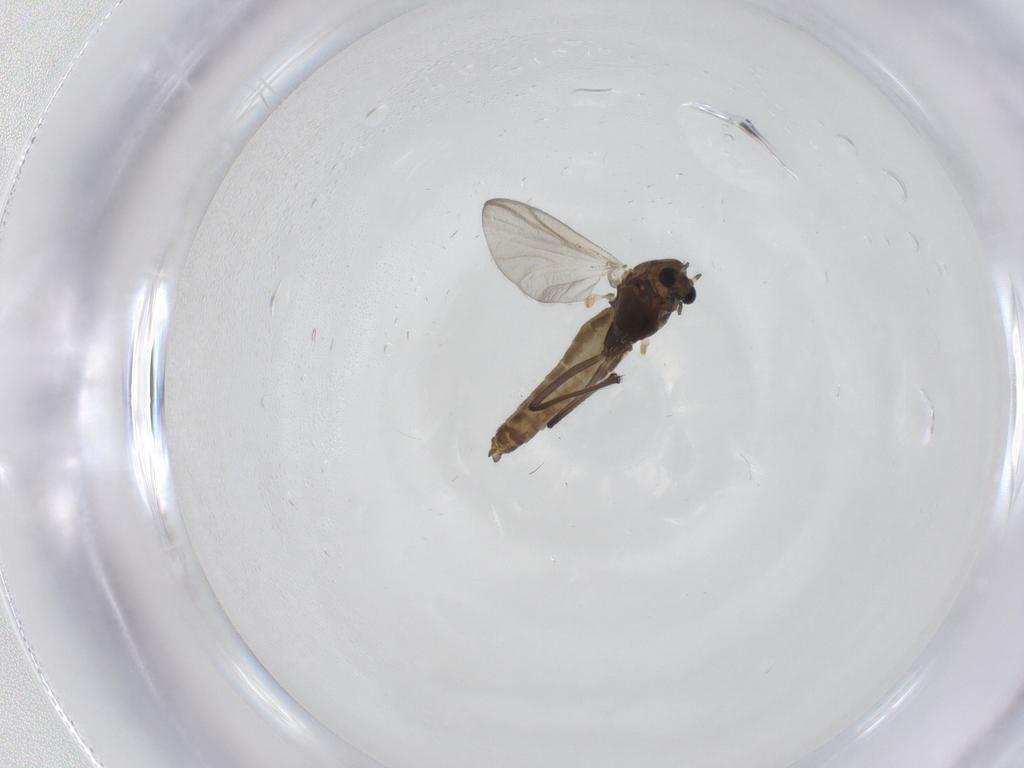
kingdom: Animalia
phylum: Arthropoda
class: Insecta
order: Diptera
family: Chironomidae
